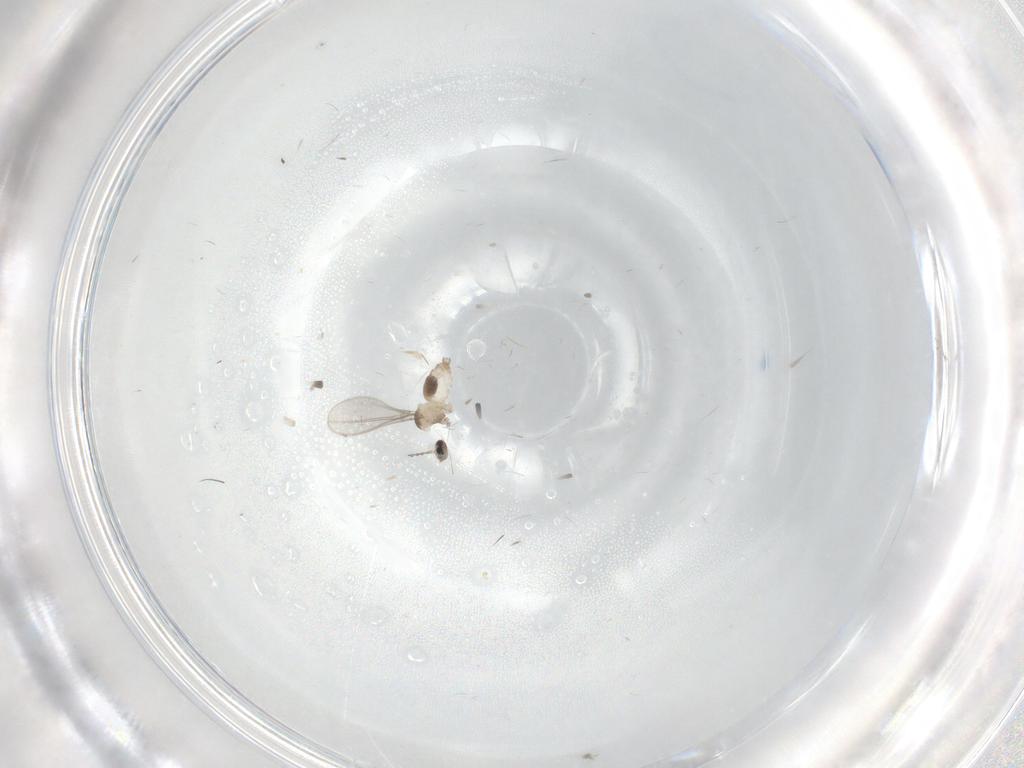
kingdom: Animalia
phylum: Arthropoda
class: Insecta
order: Diptera
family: Cecidomyiidae
